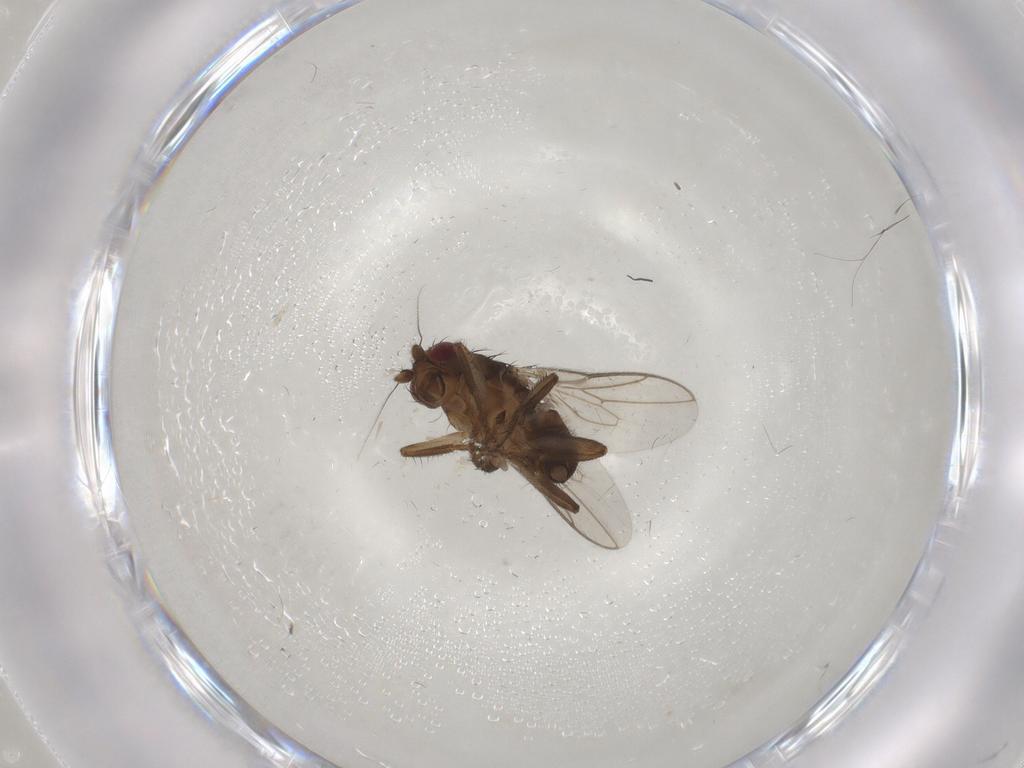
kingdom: Animalia
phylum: Arthropoda
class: Insecta
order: Diptera
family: Sphaeroceridae
